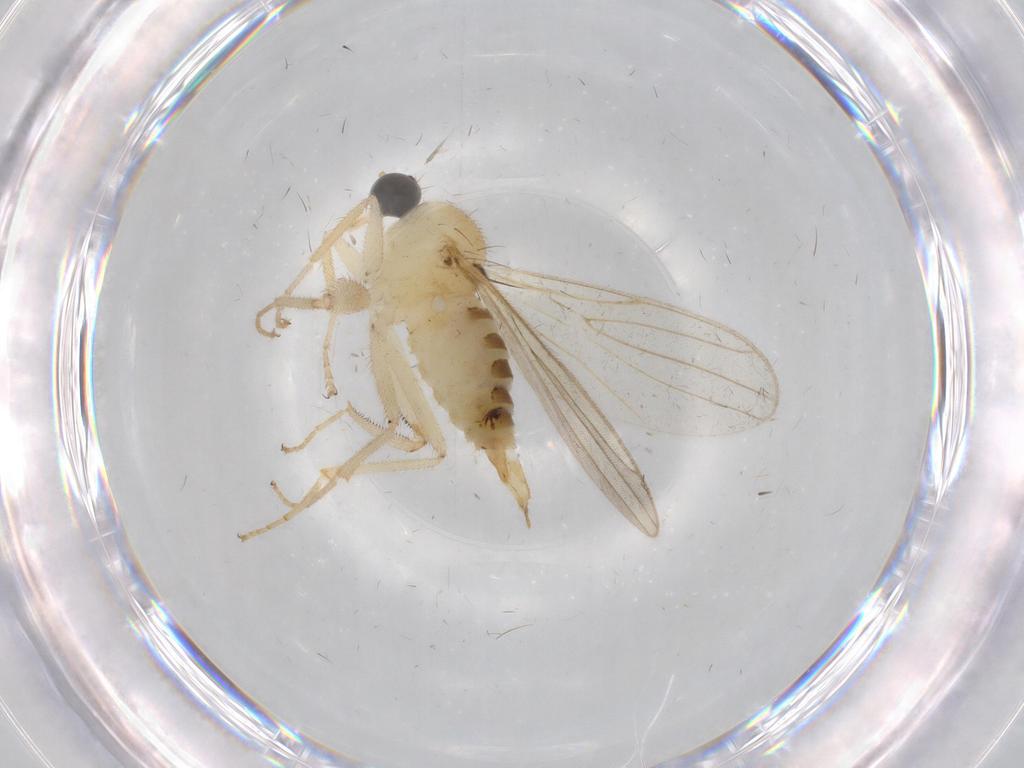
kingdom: Animalia
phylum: Arthropoda
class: Insecta
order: Diptera
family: Hybotidae
